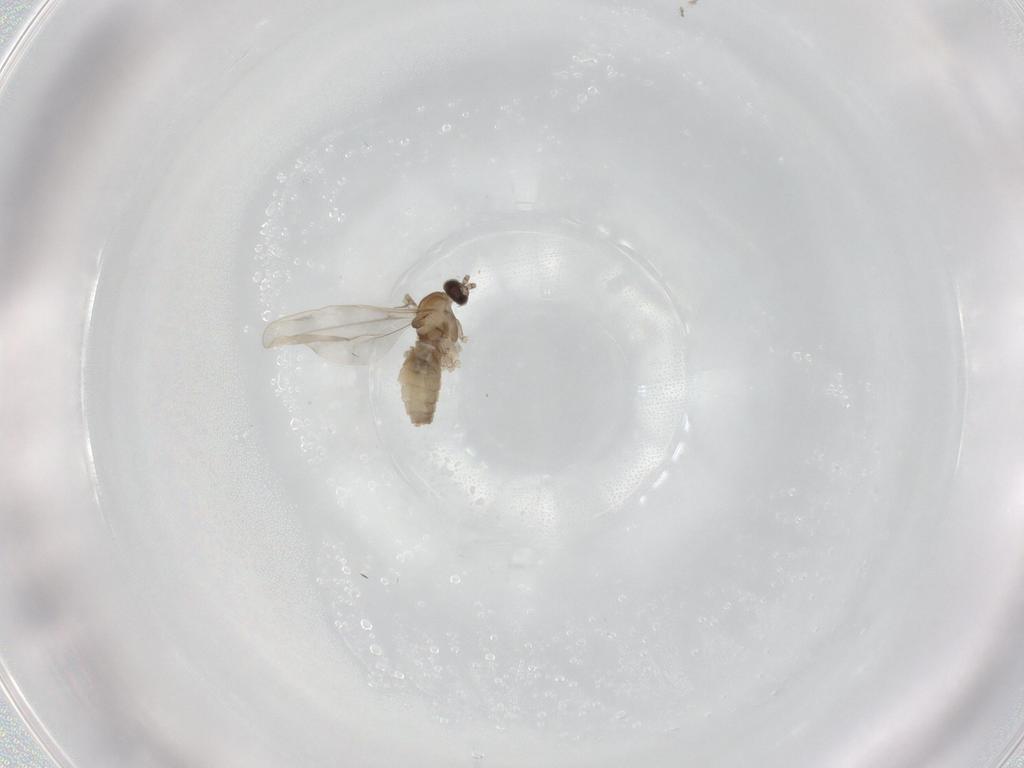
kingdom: Animalia
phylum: Arthropoda
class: Insecta
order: Diptera
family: Cecidomyiidae
